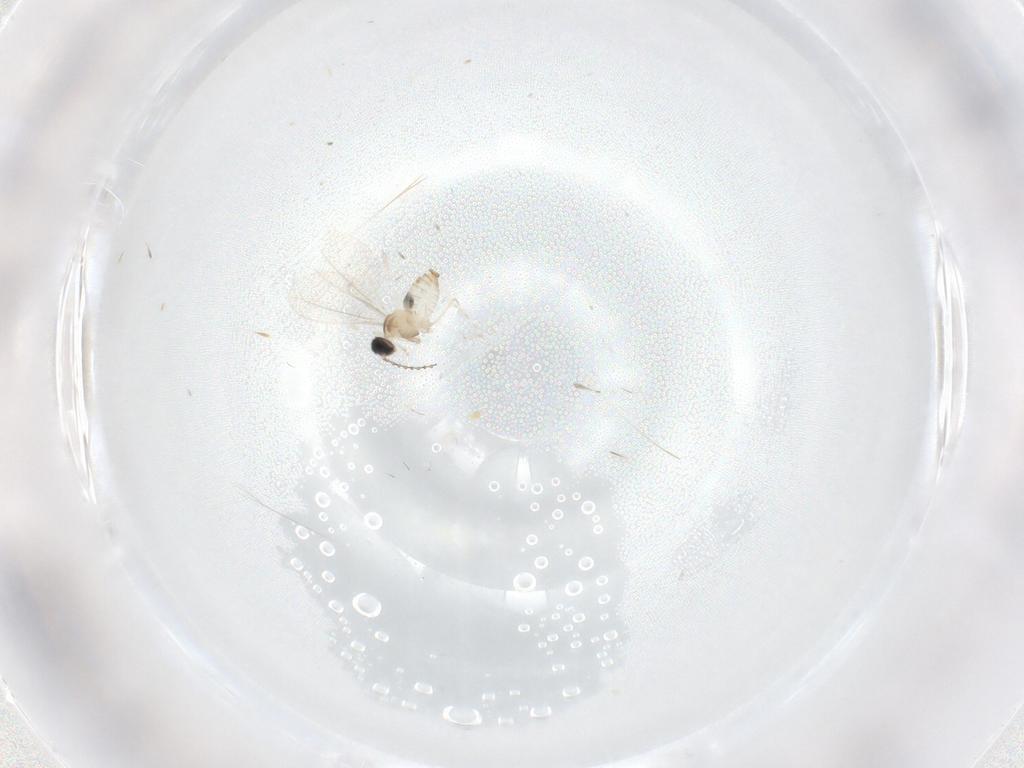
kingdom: Animalia
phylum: Arthropoda
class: Insecta
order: Diptera
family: Cecidomyiidae
